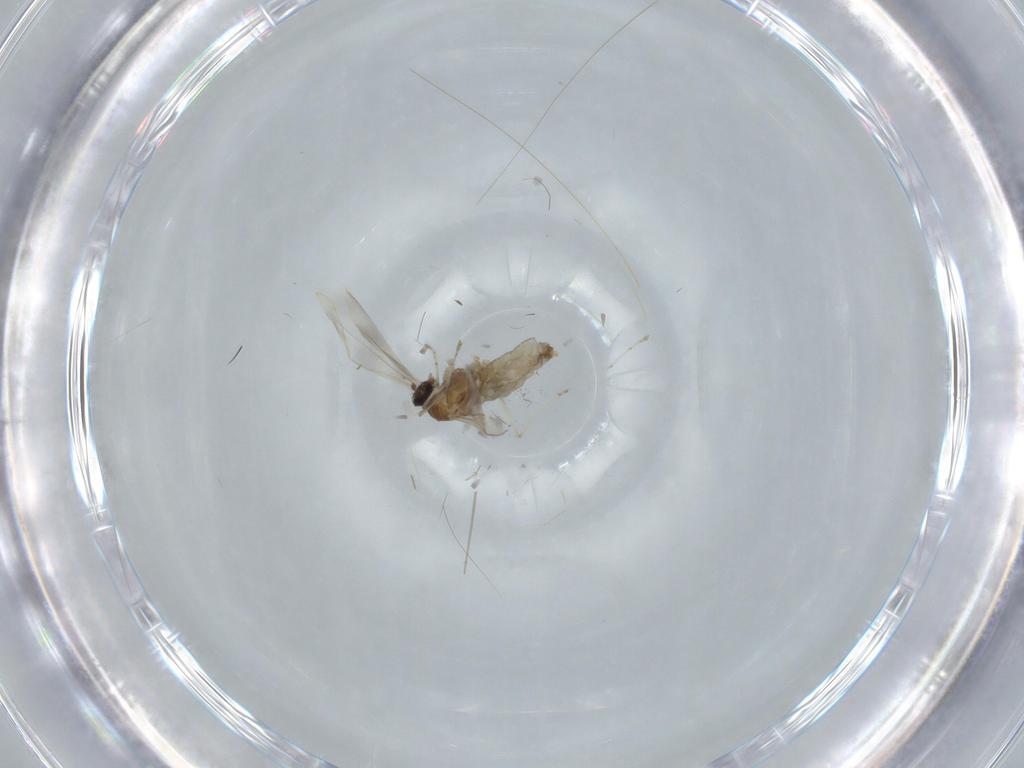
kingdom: Animalia
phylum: Arthropoda
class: Insecta
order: Diptera
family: Cecidomyiidae
